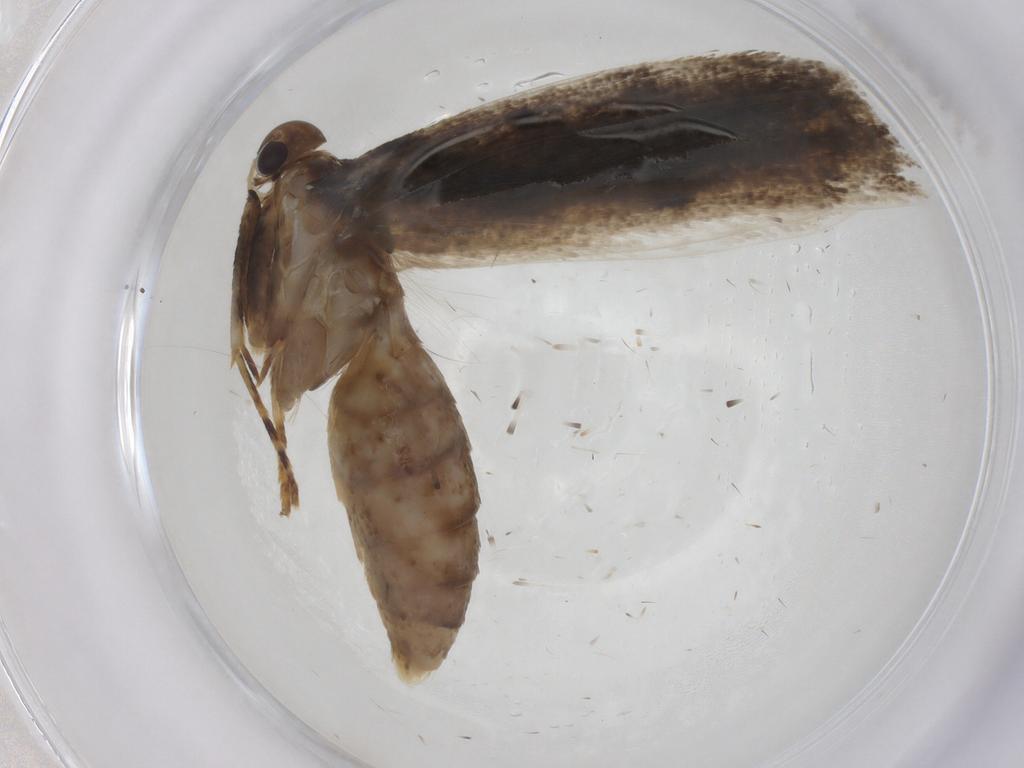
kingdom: Animalia
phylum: Arthropoda
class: Insecta
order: Lepidoptera
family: Gelechiidae
